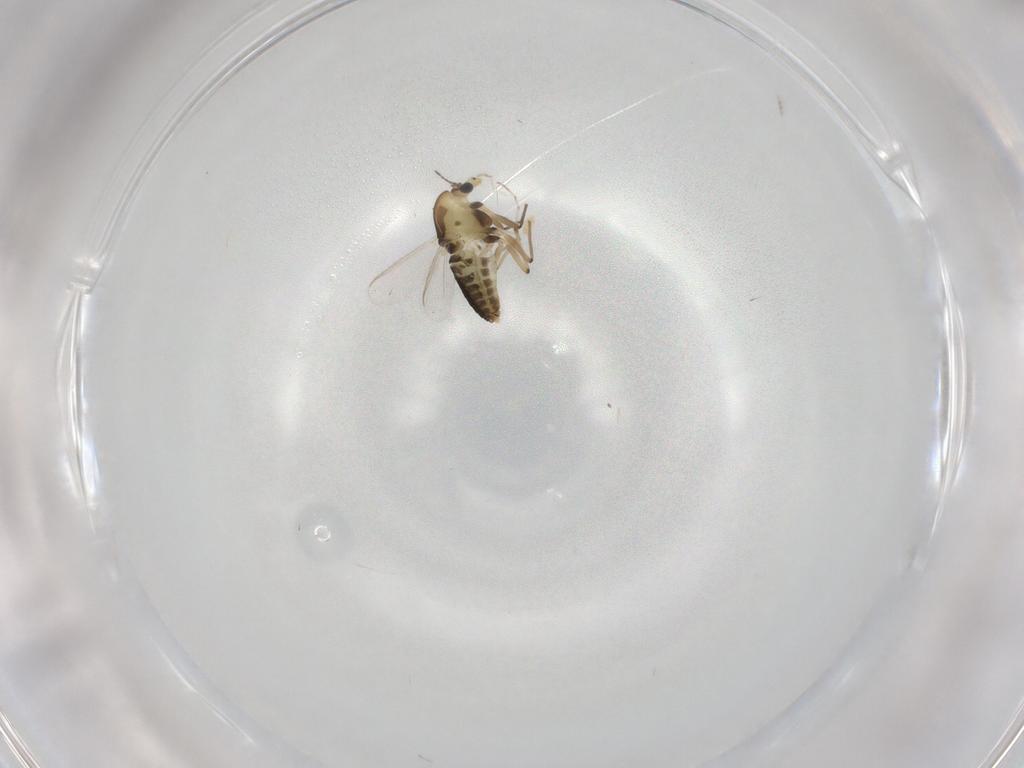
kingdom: Animalia
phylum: Arthropoda
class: Insecta
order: Diptera
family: Chironomidae
